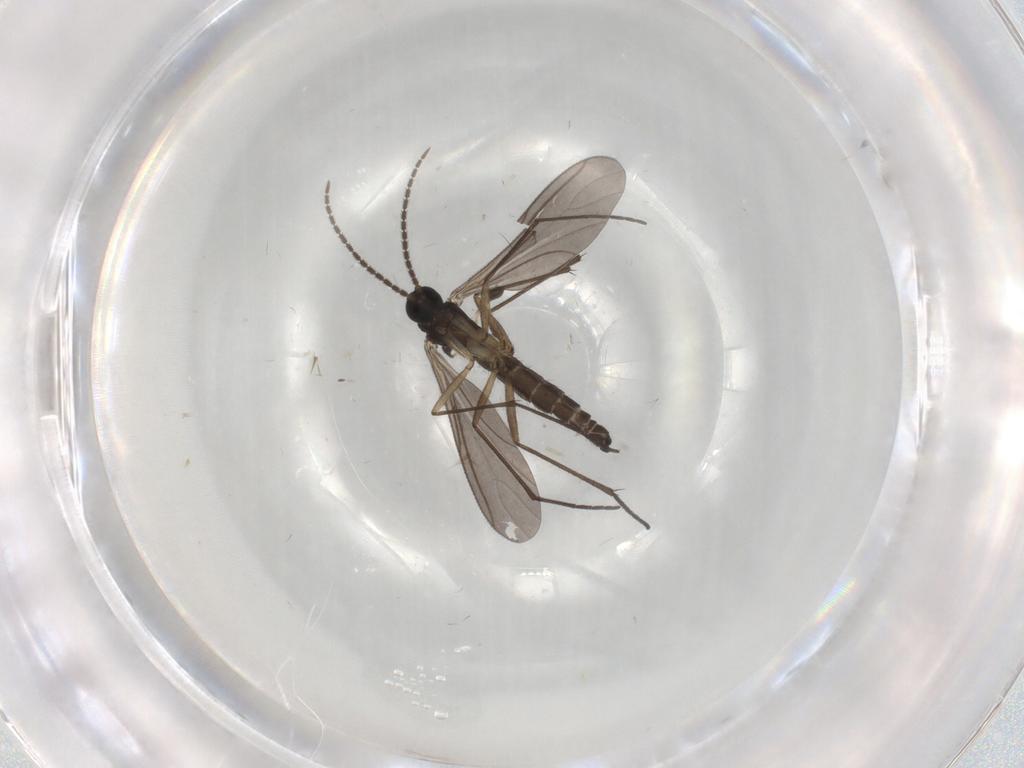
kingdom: Animalia
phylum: Arthropoda
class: Insecta
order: Diptera
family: Sciaridae
